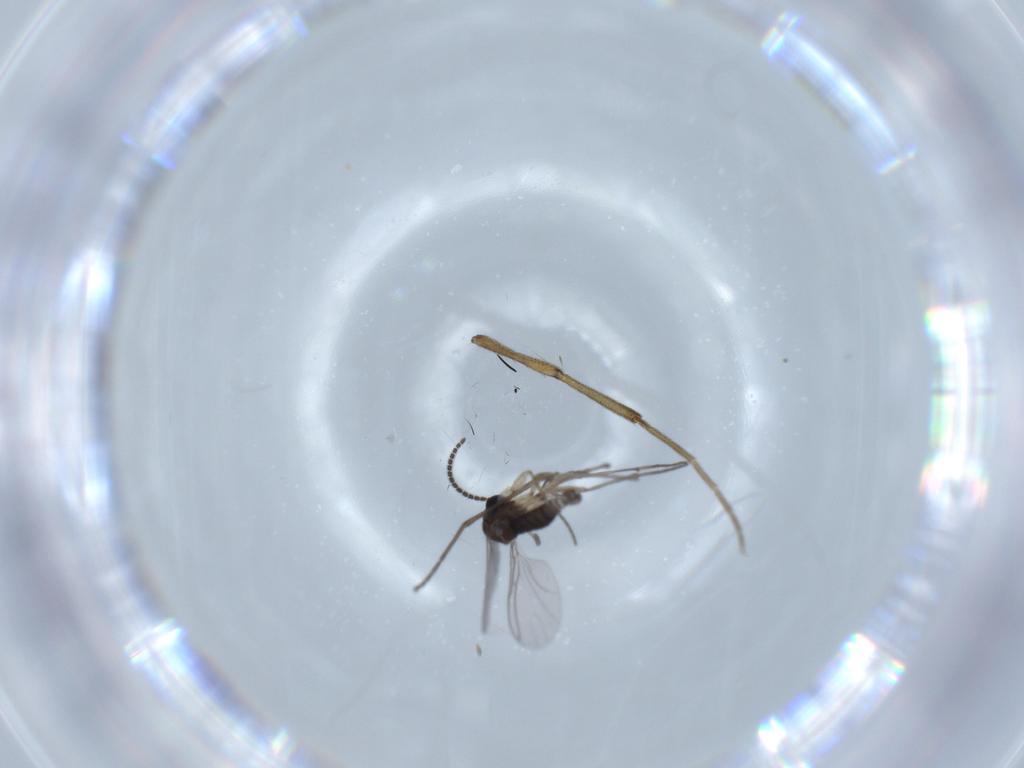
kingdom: Animalia
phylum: Arthropoda
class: Insecta
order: Diptera
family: Sciaridae
